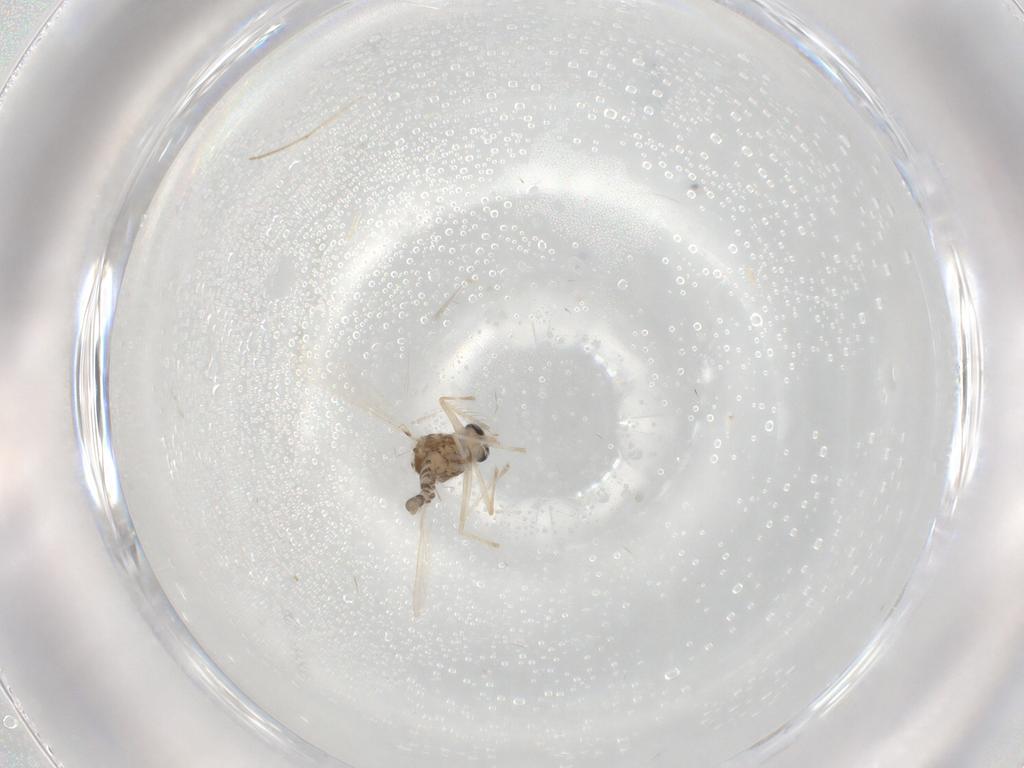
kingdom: Animalia
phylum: Arthropoda
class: Insecta
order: Diptera
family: Chironomidae
